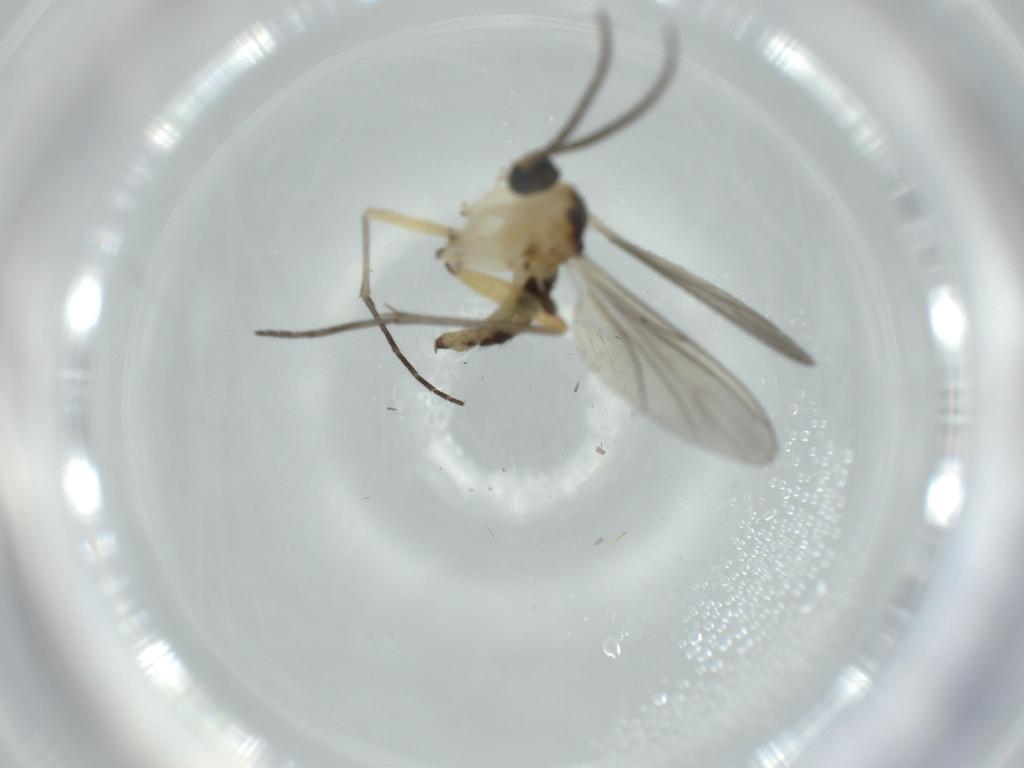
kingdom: Animalia
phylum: Arthropoda
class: Insecta
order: Diptera
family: Sciaridae
